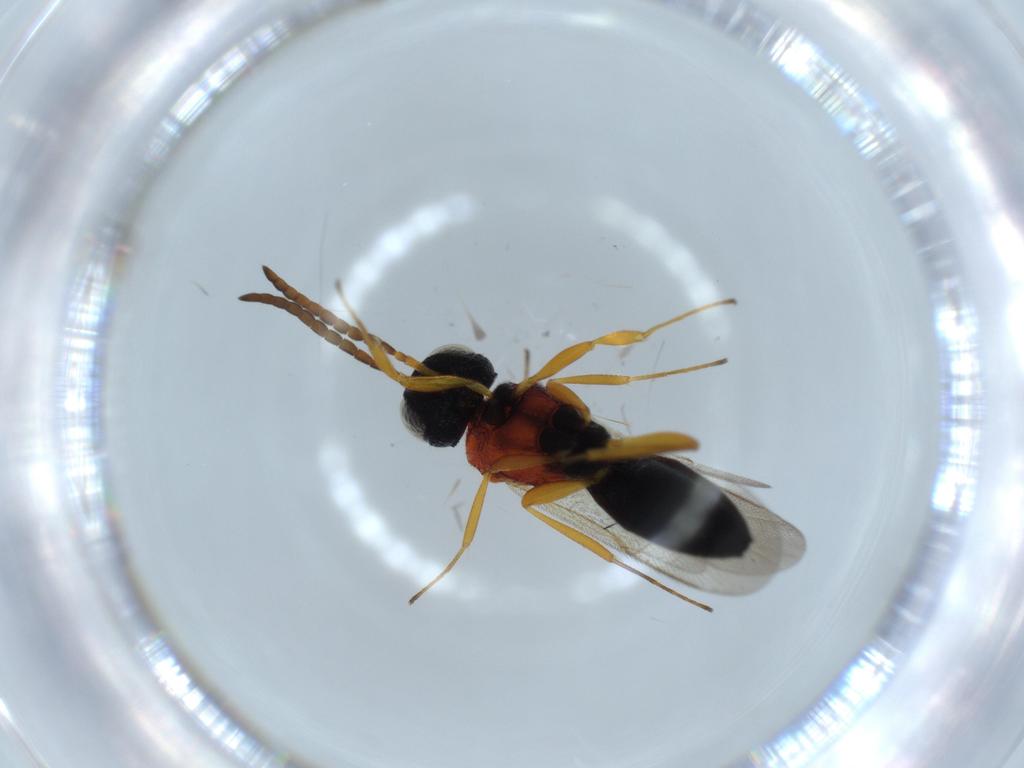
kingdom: Animalia
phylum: Arthropoda
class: Insecta
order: Hymenoptera
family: Scelionidae
